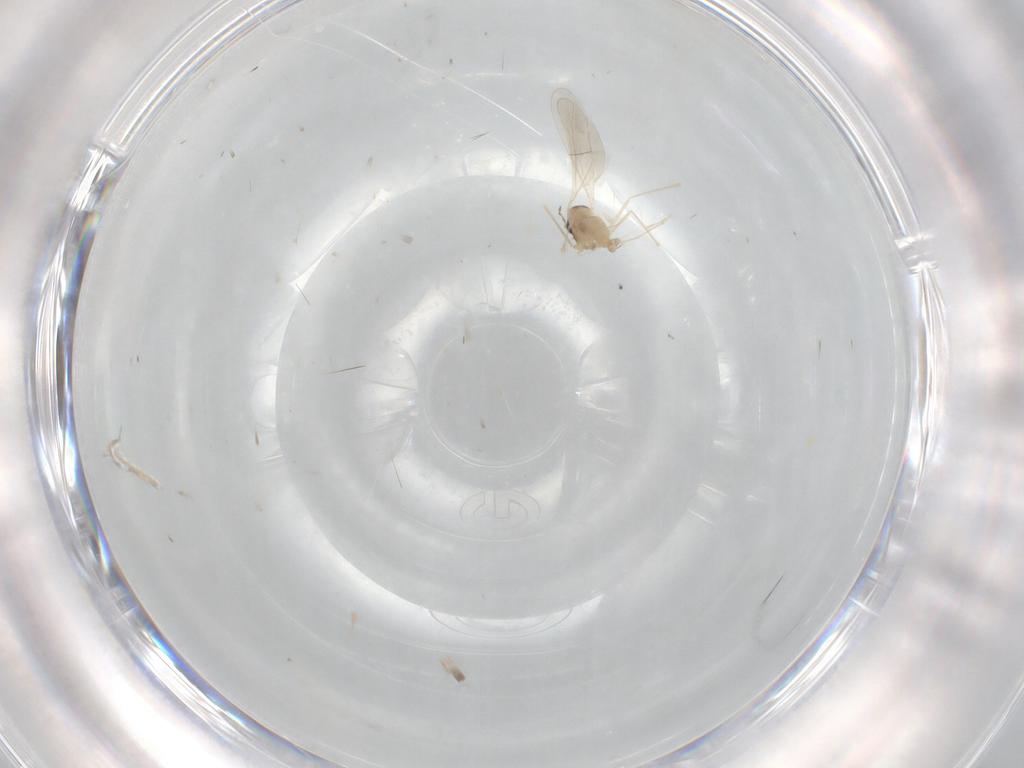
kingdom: Animalia
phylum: Arthropoda
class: Insecta
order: Diptera
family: Cecidomyiidae
